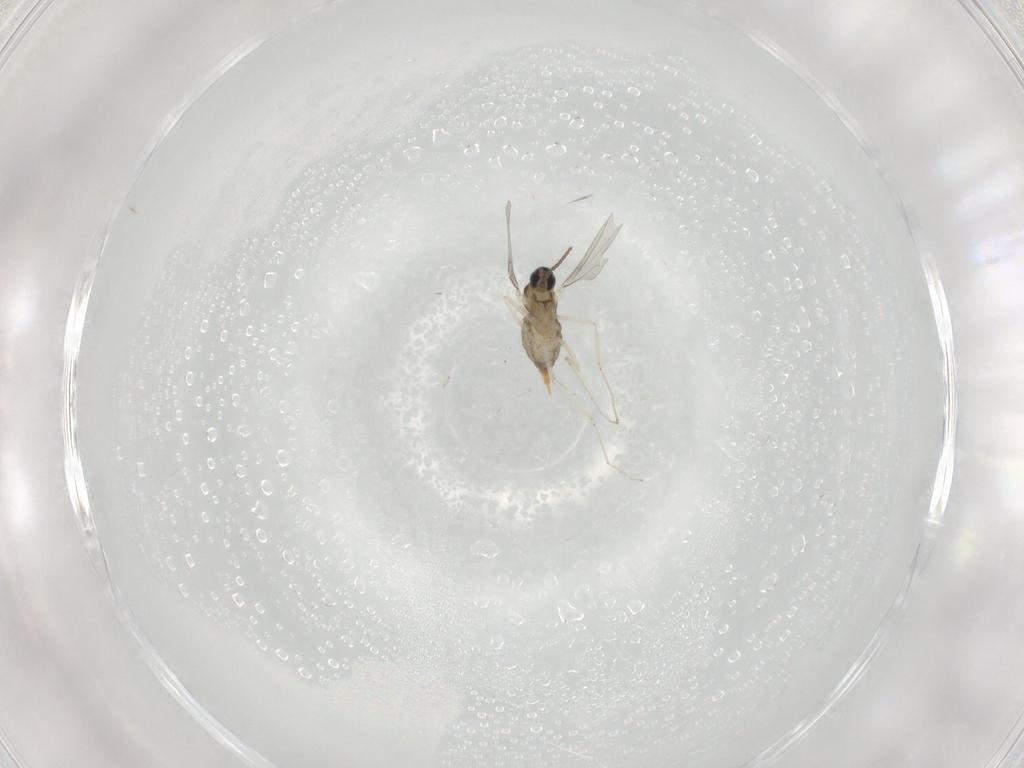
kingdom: Animalia
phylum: Arthropoda
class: Insecta
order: Diptera
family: Cecidomyiidae
